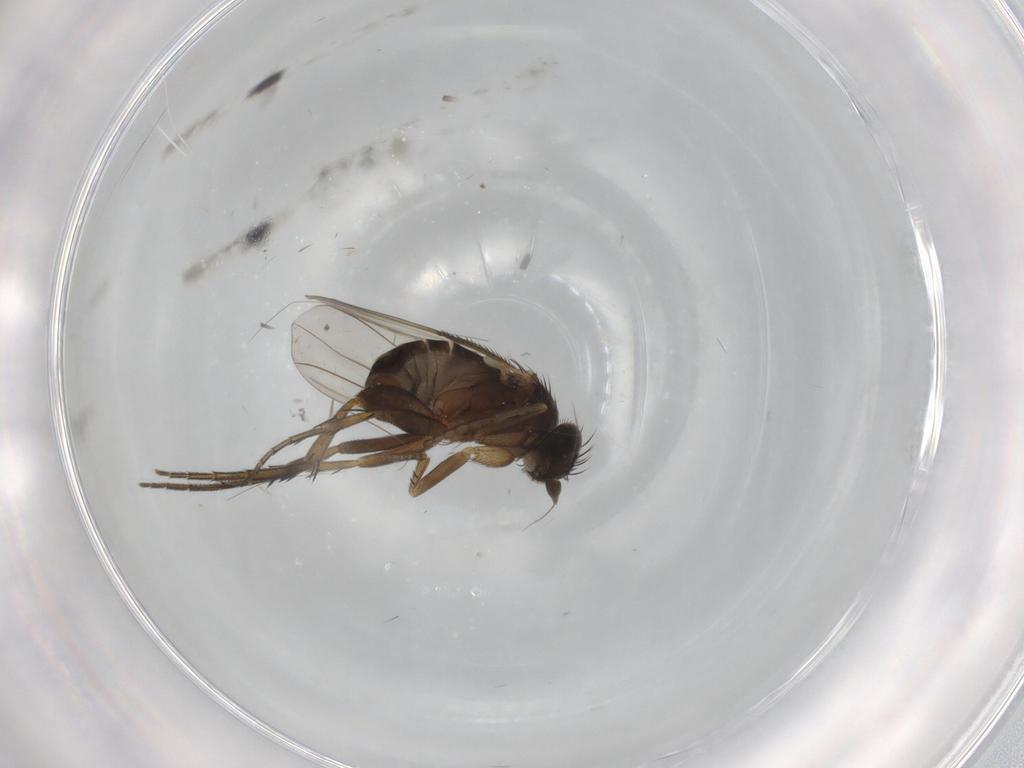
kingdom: Animalia
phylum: Arthropoda
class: Insecta
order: Diptera
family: Phoridae
